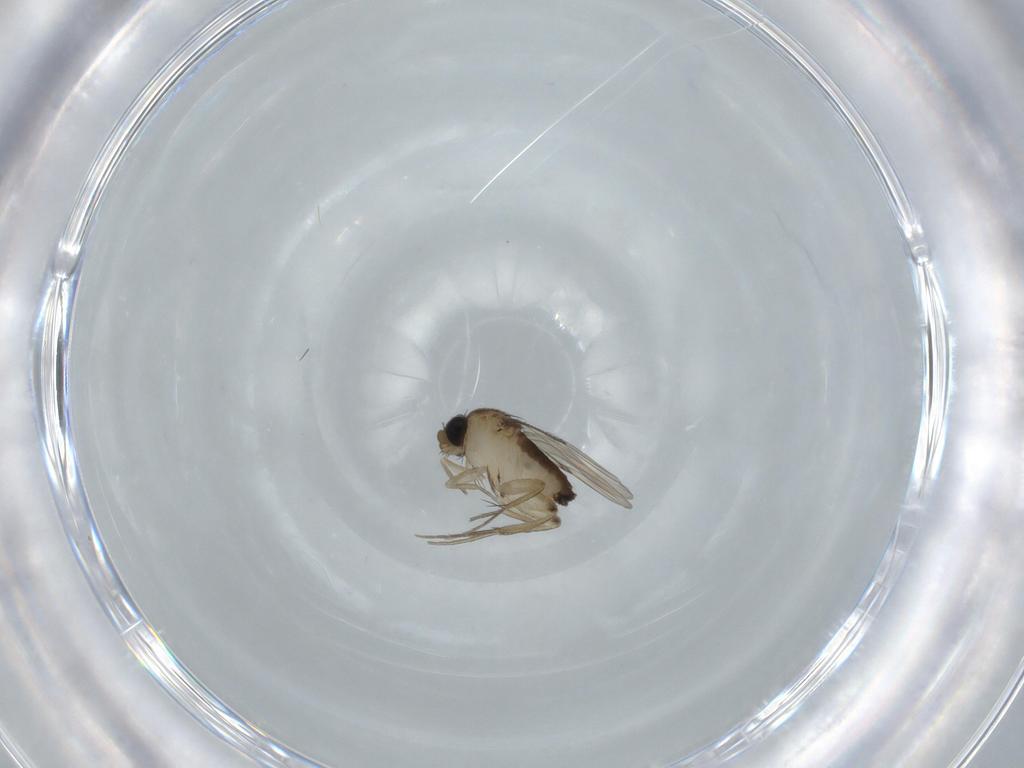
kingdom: Animalia
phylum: Arthropoda
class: Insecta
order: Diptera
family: Phoridae
